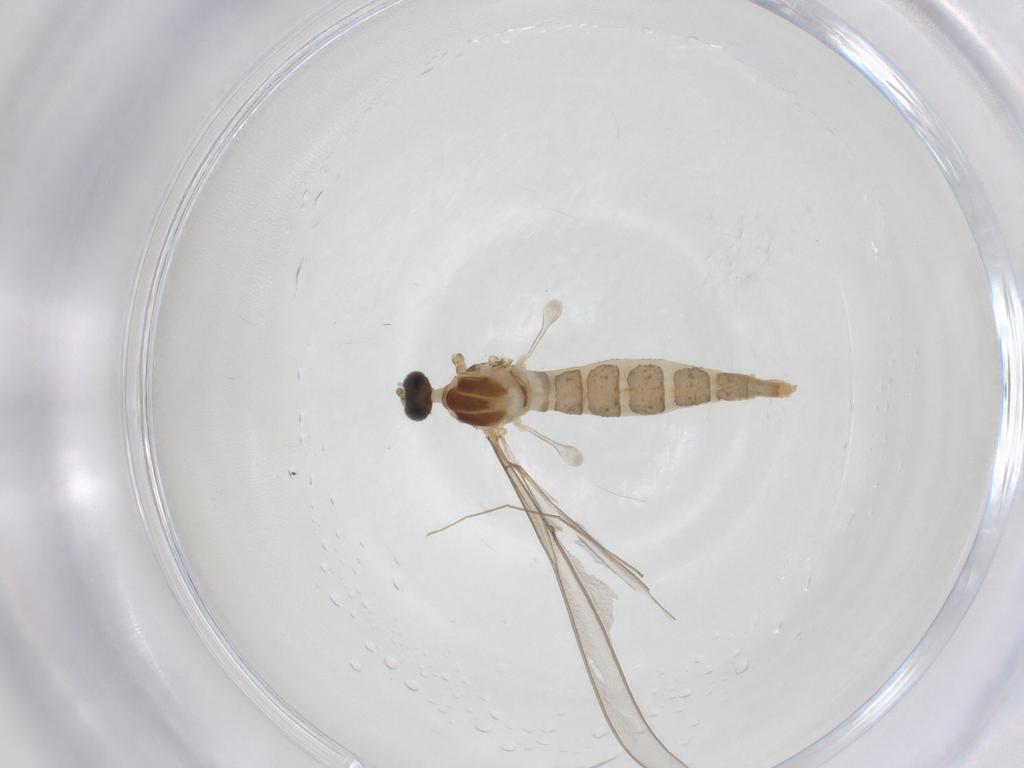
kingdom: Animalia
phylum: Arthropoda
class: Insecta
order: Diptera
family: Cecidomyiidae
